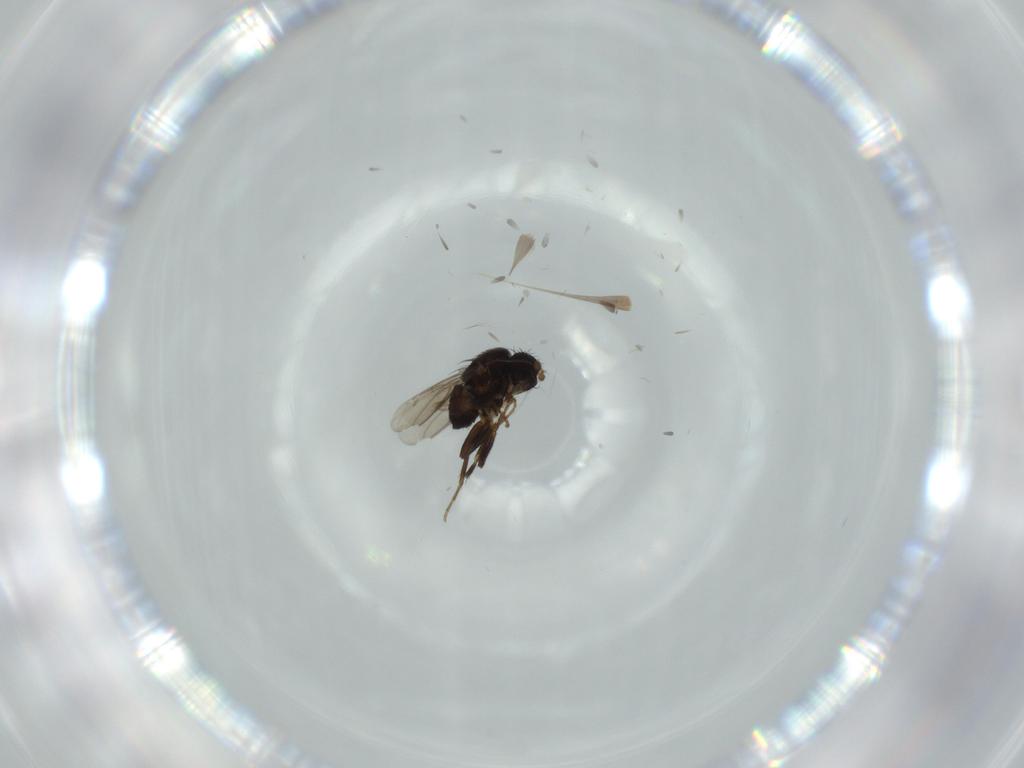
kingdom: Animalia
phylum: Arthropoda
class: Insecta
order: Diptera
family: Sphaeroceridae
